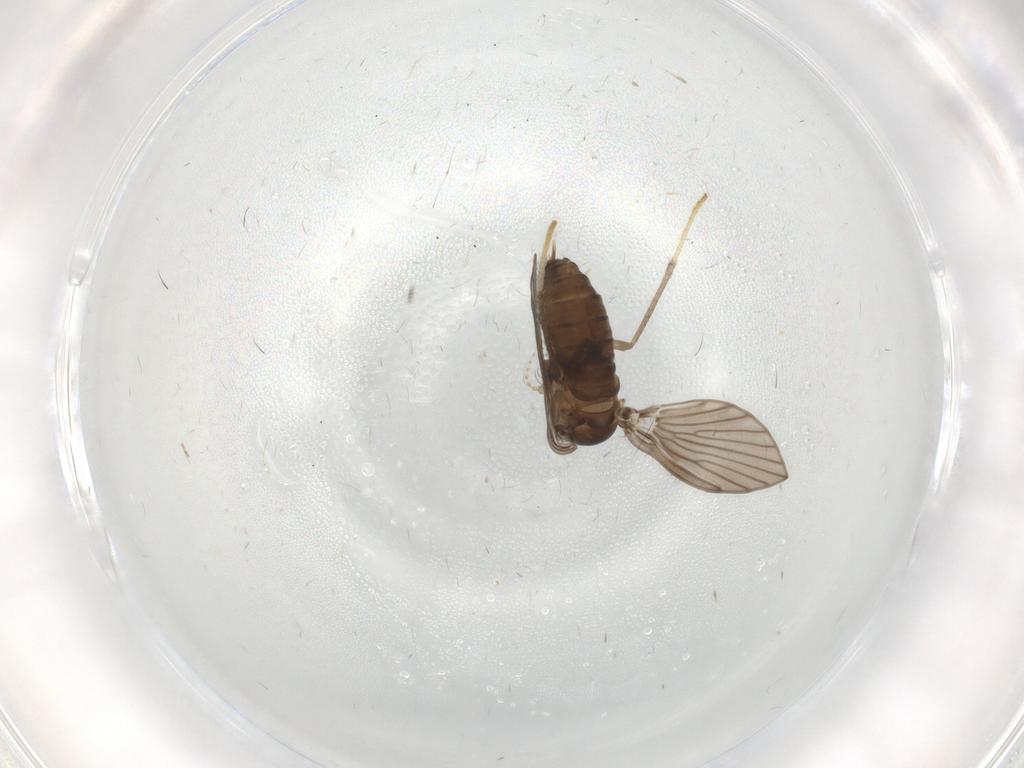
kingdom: Animalia
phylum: Arthropoda
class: Insecta
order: Diptera
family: Psychodidae
